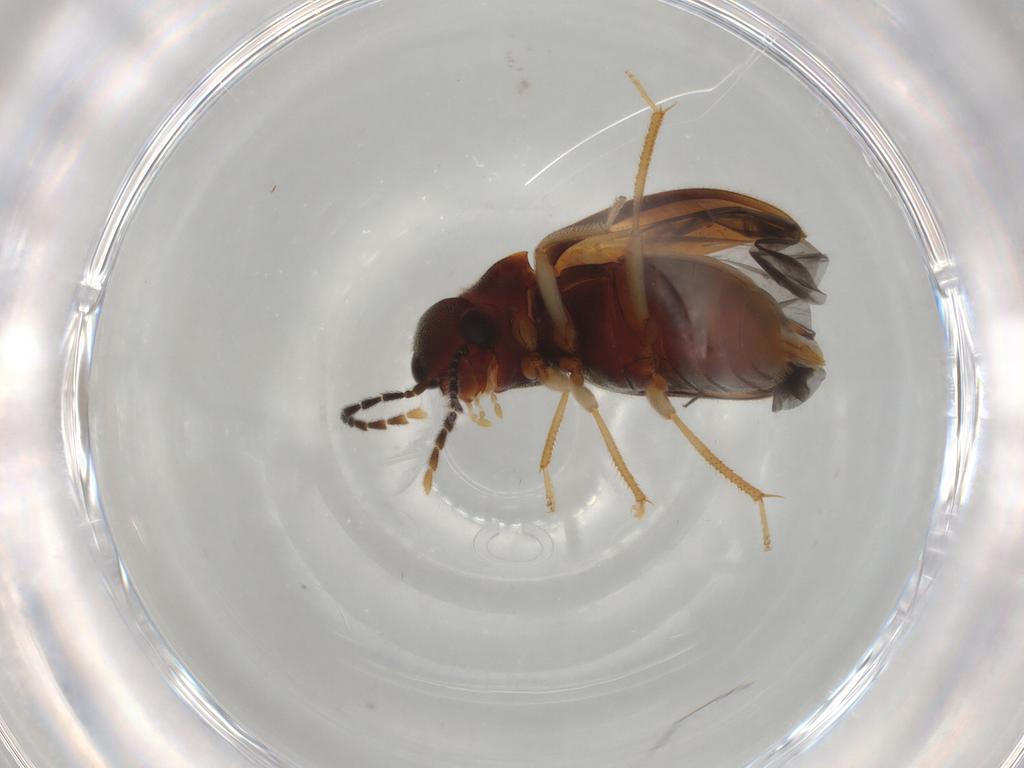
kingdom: Animalia
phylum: Arthropoda
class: Insecta
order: Coleoptera
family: Ptilodactylidae
